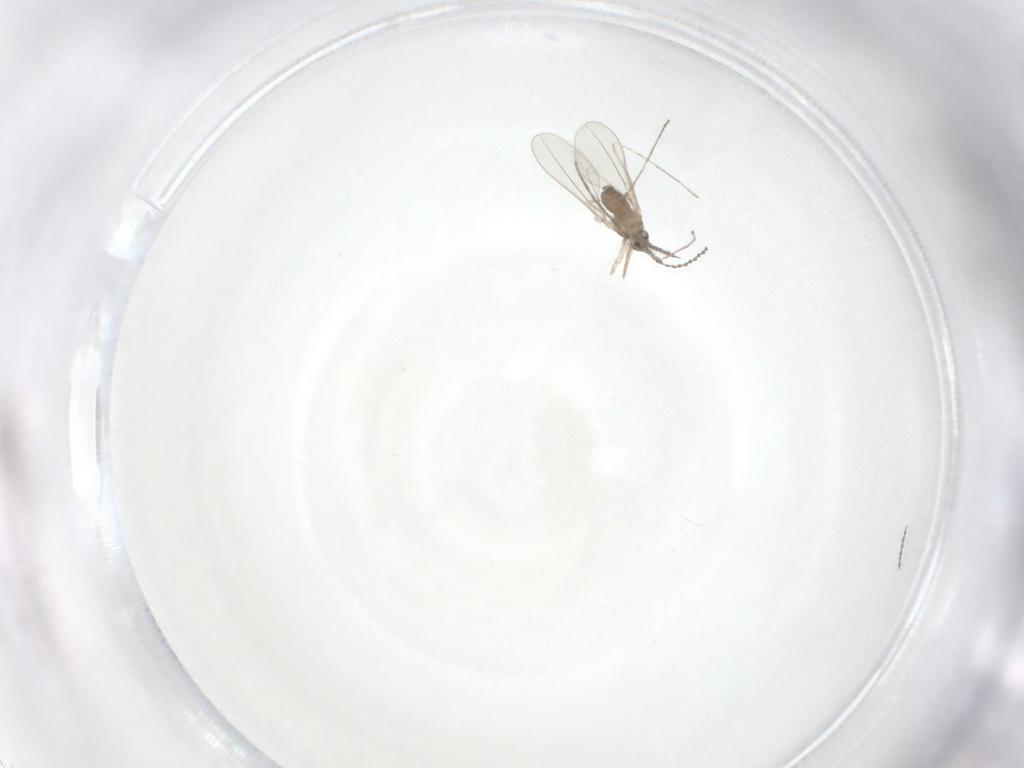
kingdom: Animalia
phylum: Arthropoda
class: Insecta
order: Diptera
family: Cecidomyiidae
